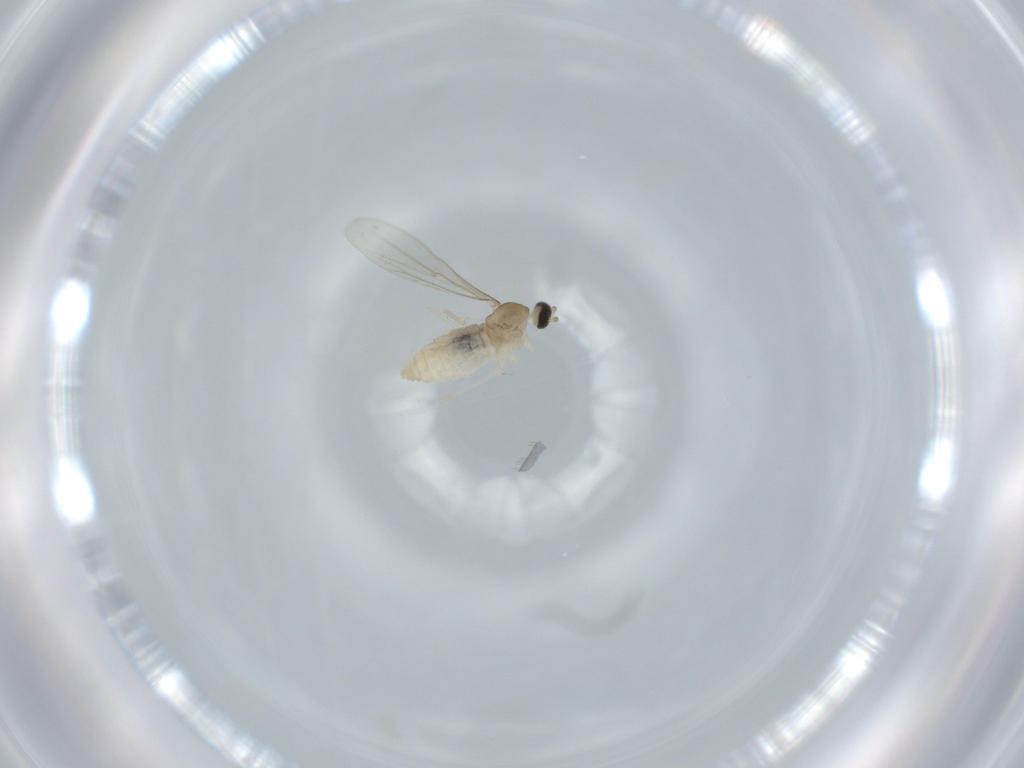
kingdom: Animalia
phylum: Arthropoda
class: Insecta
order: Diptera
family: Cecidomyiidae
